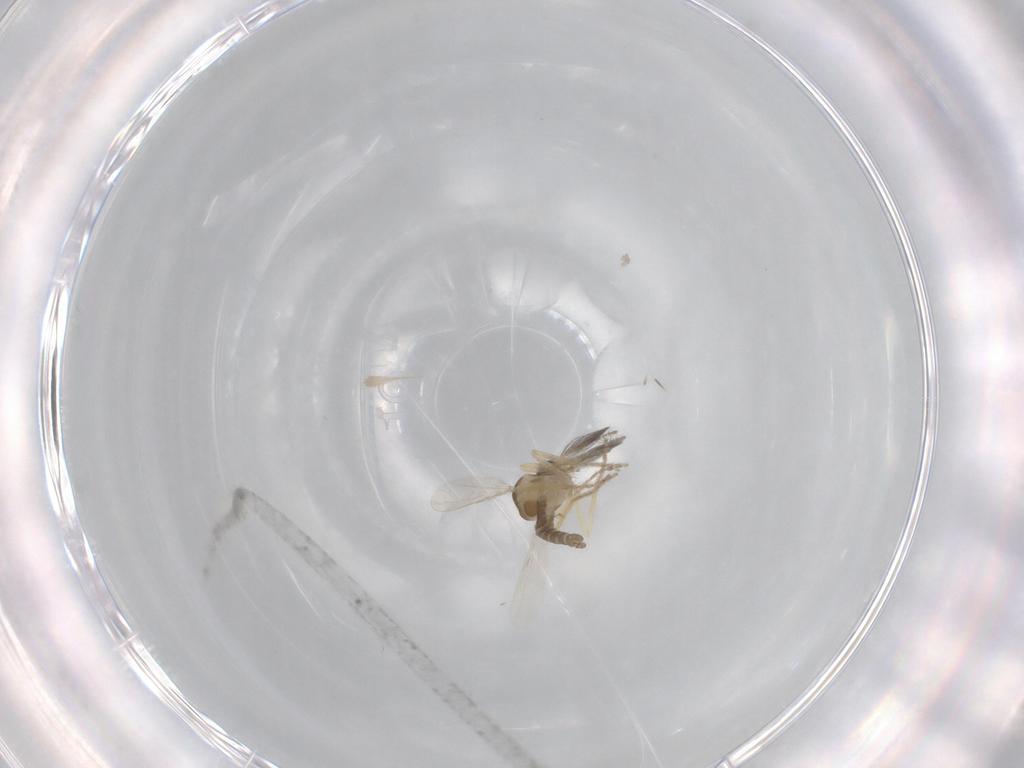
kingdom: Animalia
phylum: Arthropoda
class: Insecta
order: Diptera
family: Ceratopogonidae
